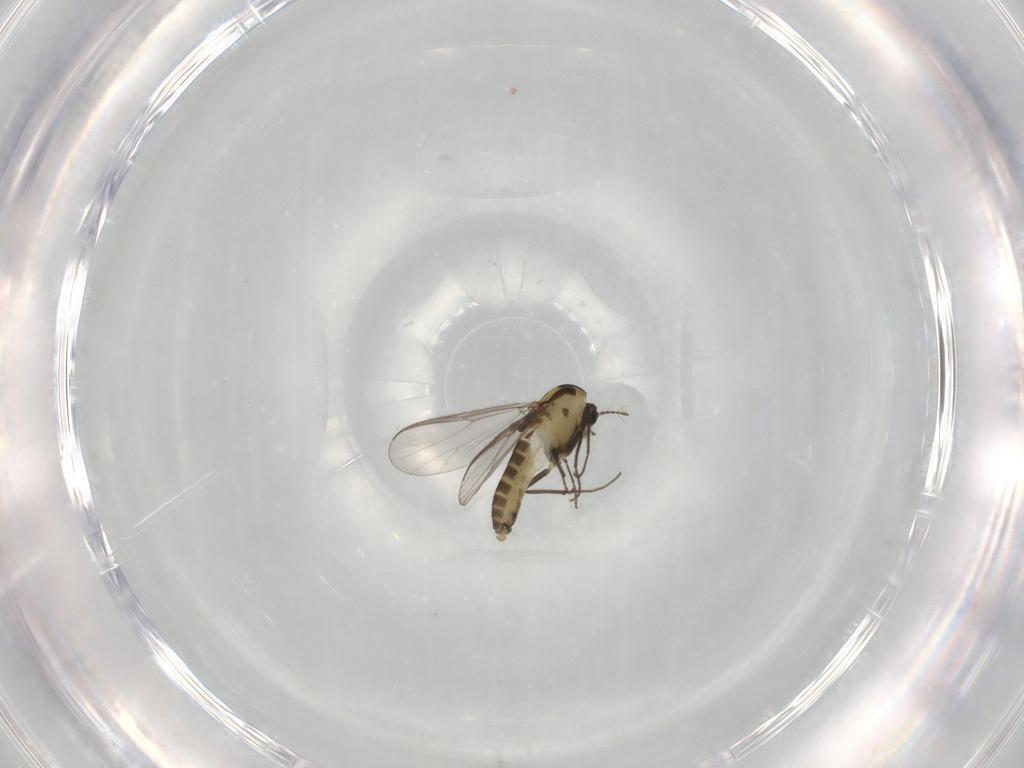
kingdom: Animalia
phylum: Arthropoda
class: Insecta
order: Diptera
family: Chironomidae
